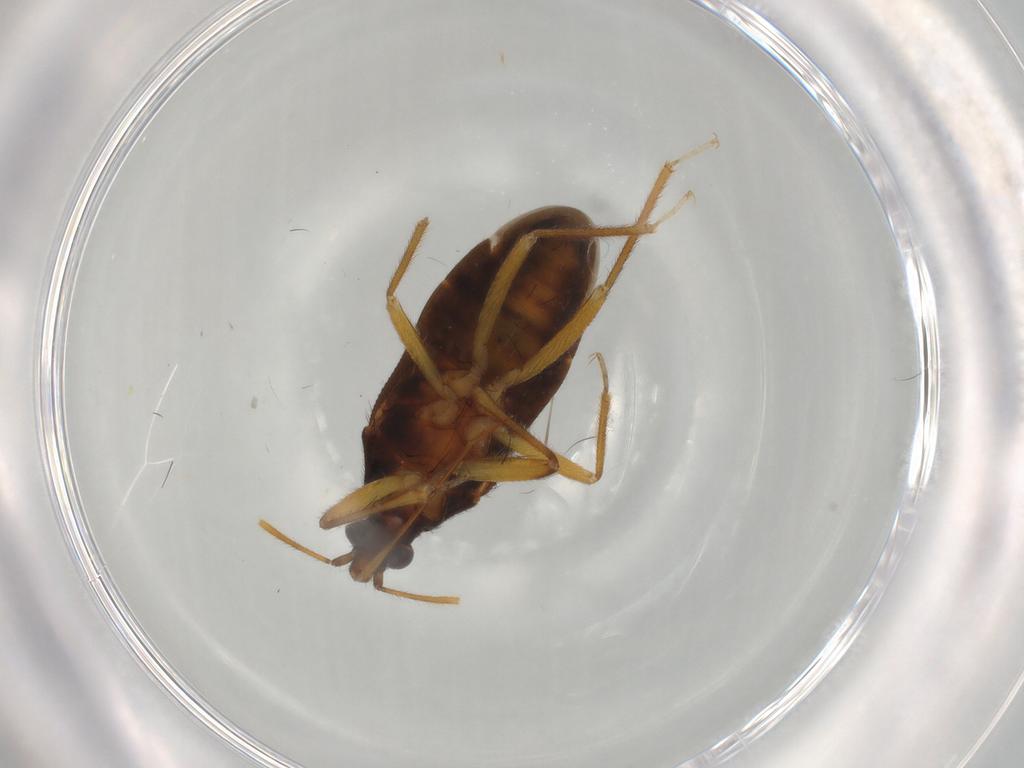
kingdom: Animalia
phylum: Arthropoda
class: Insecta
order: Hemiptera
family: Anthocoridae
